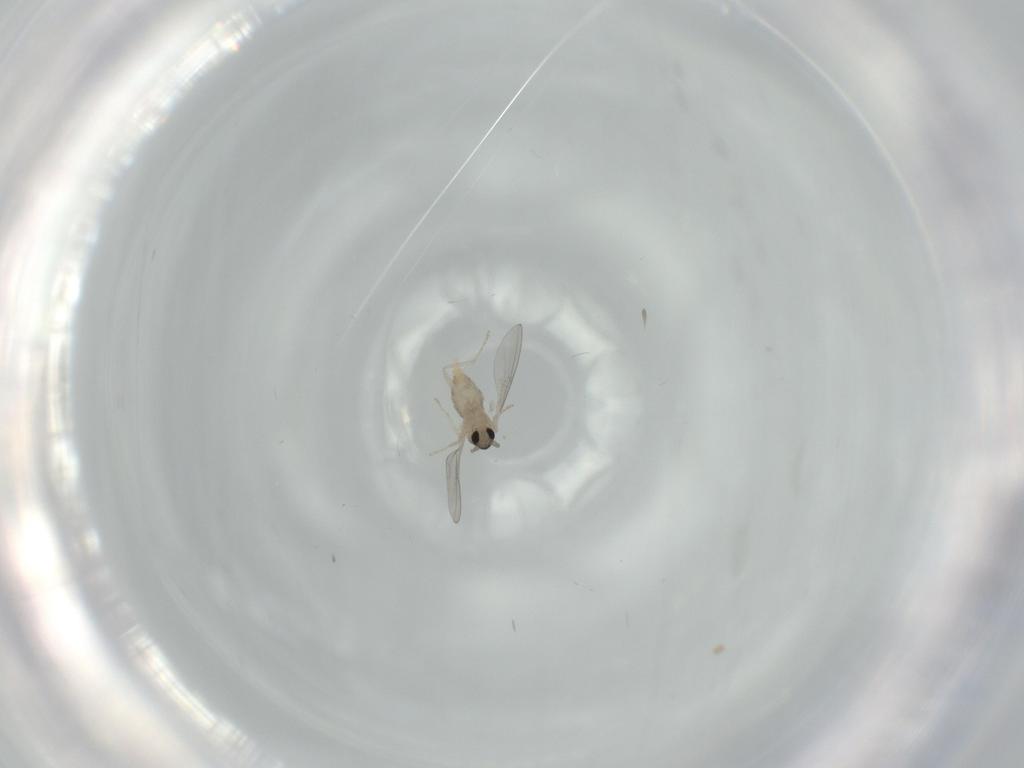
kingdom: Animalia
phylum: Arthropoda
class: Insecta
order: Diptera
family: Cecidomyiidae
